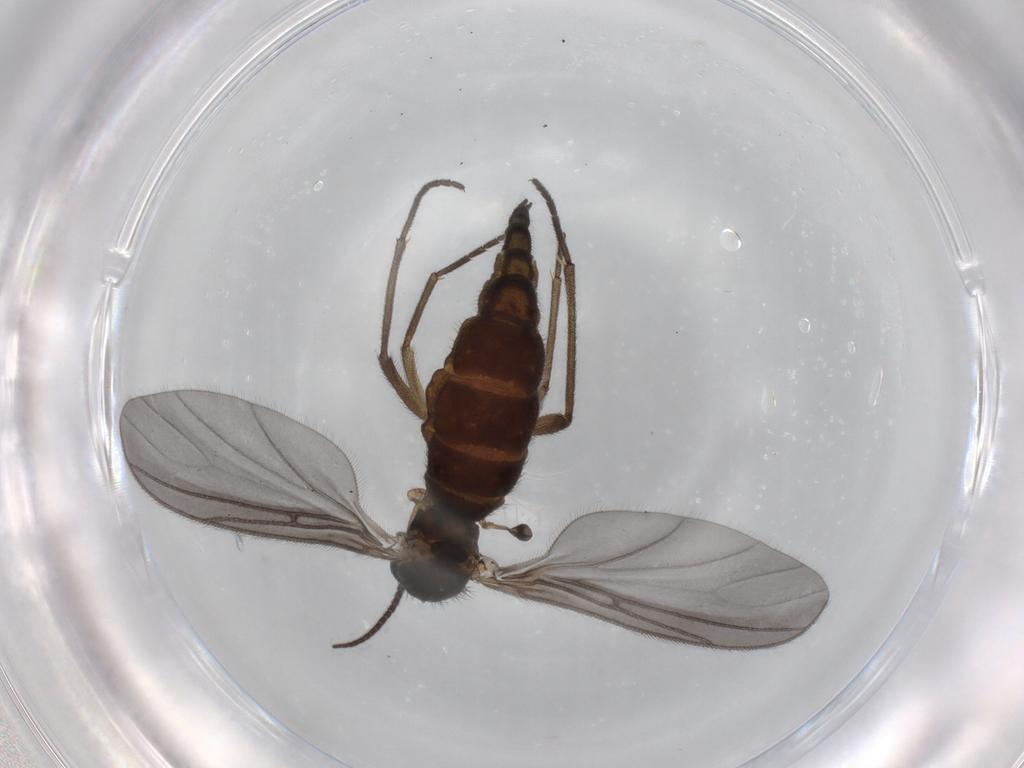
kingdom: Animalia
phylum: Arthropoda
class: Insecta
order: Diptera
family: Sciaridae
